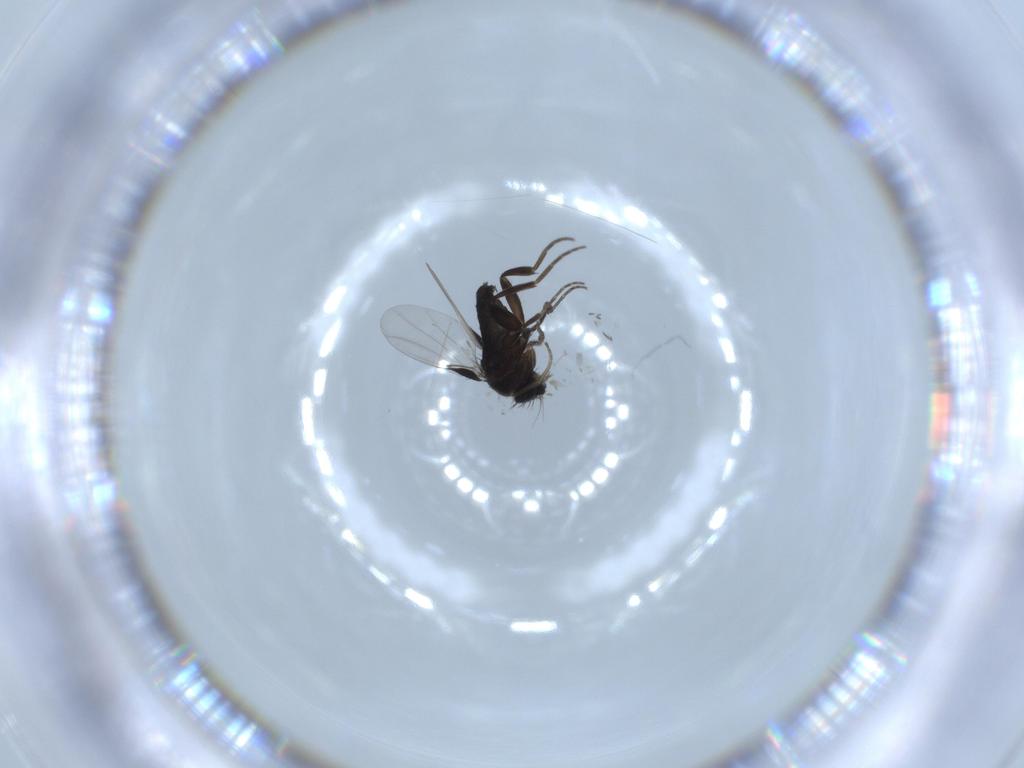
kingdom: Animalia
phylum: Arthropoda
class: Insecta
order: Diptera
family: Phoridae
